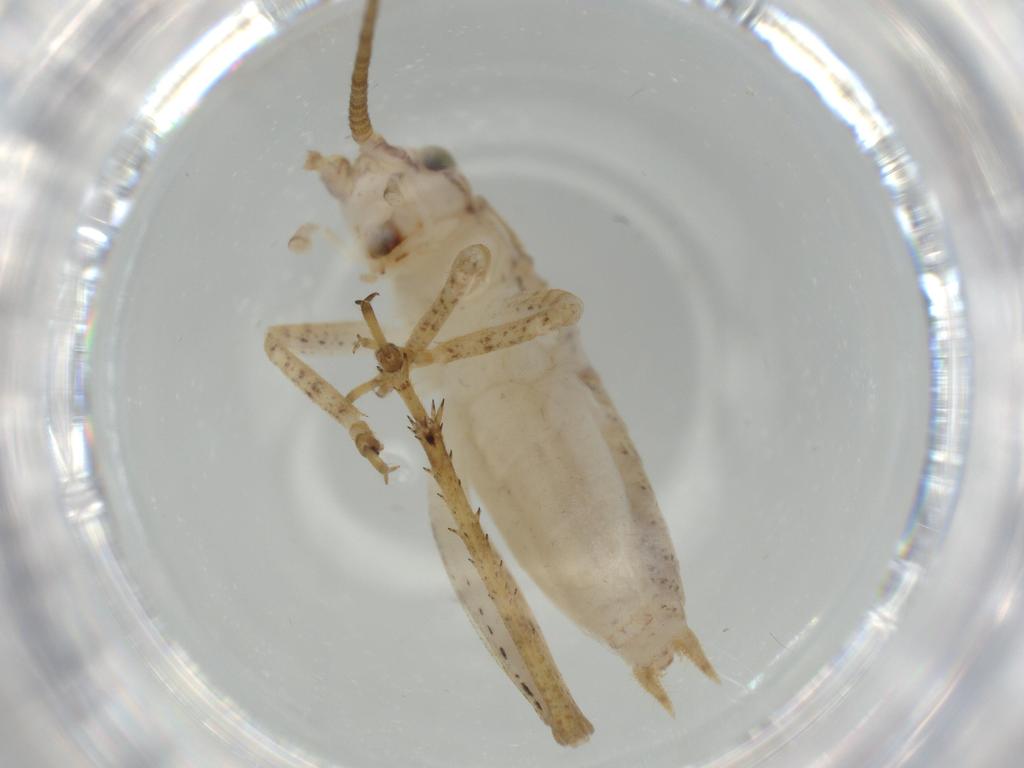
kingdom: Animalia
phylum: Arthropoda
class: Insecta
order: Orthoptera
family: Gryllidae
